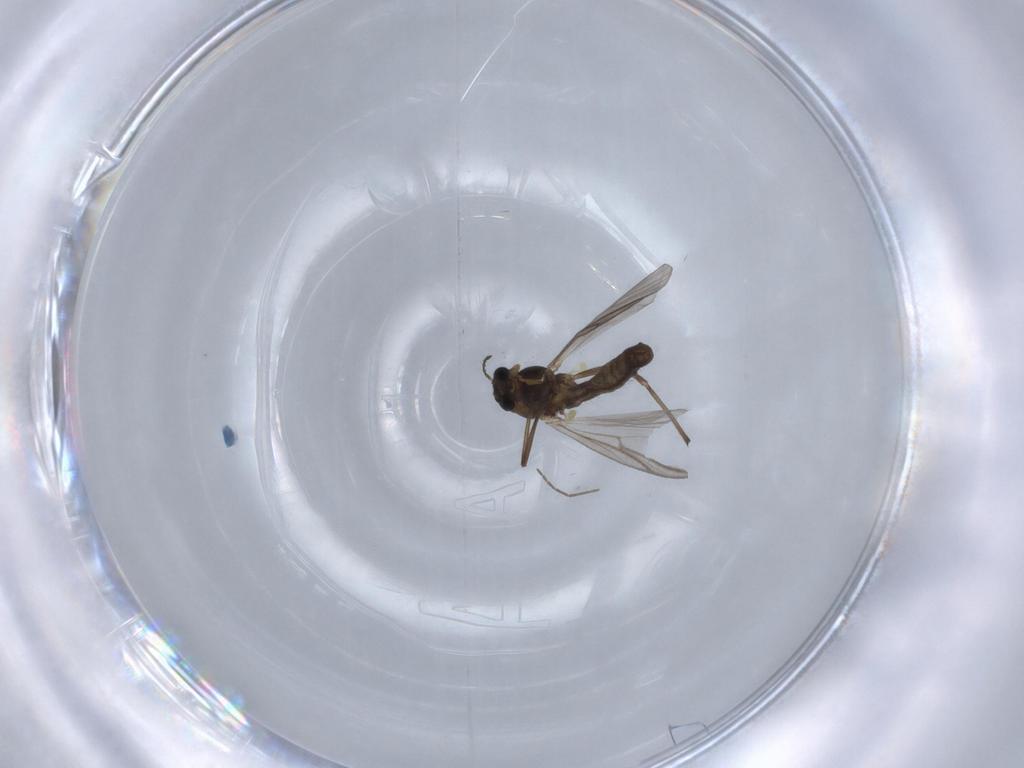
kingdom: Animalia
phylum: Arthropoda
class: Insecta
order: Diptera
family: Chironomidae
